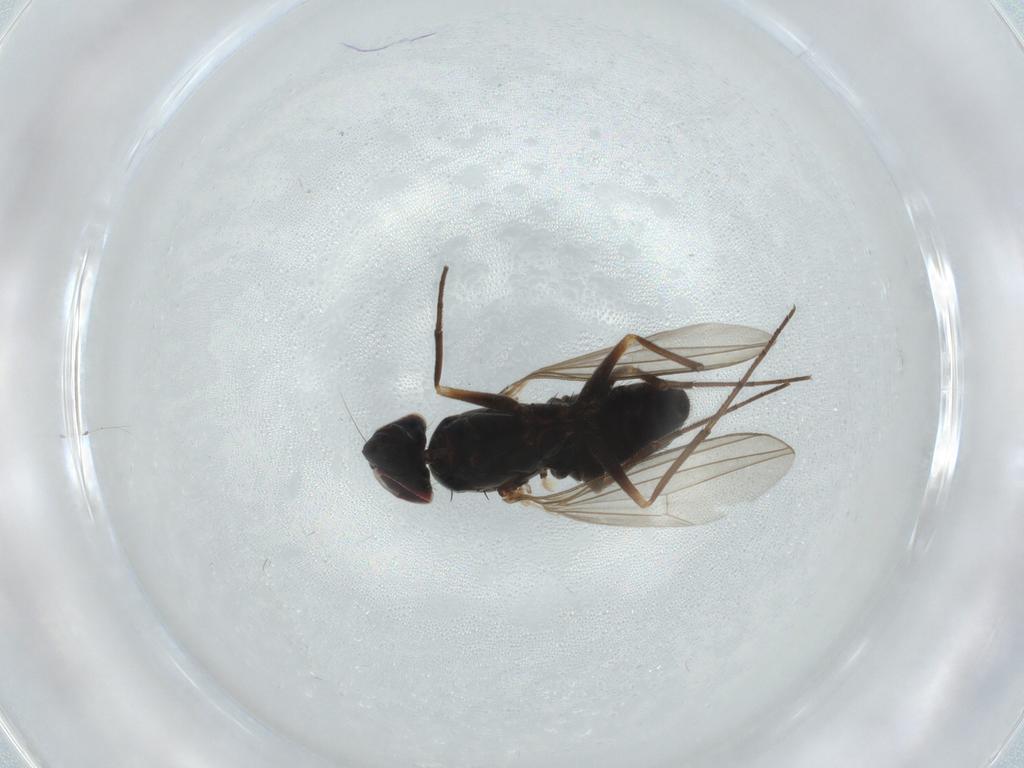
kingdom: Animalia
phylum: Arthropoda
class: Insecta
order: Diptera
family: Dolichopodidae
